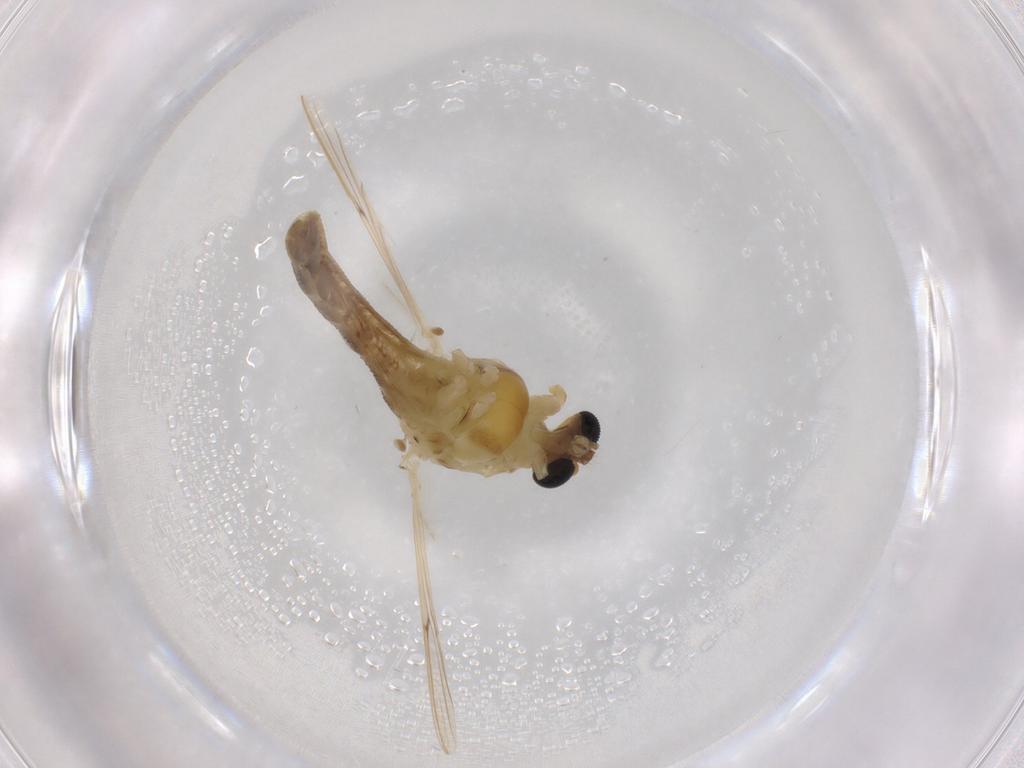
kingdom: Animalia
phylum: Arthropoda
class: Insecta
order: Diptera
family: Psychodidae
